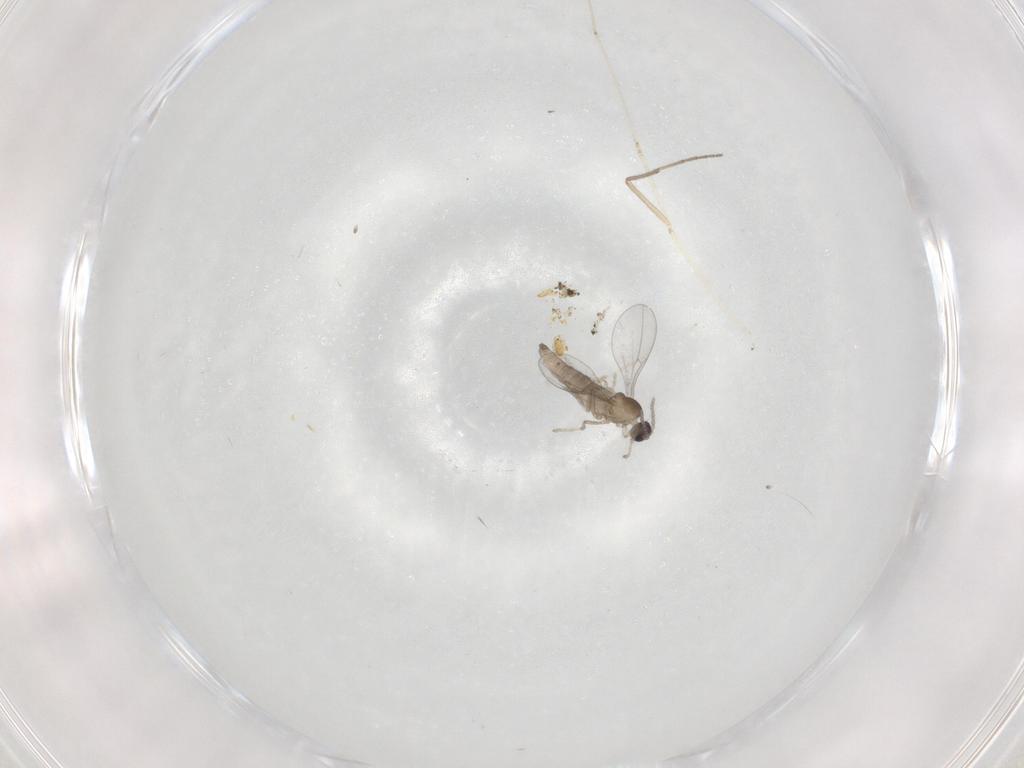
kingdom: Animalia
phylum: Arthropoda
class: Insecta
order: Diptera
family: Cecidomyiidae
